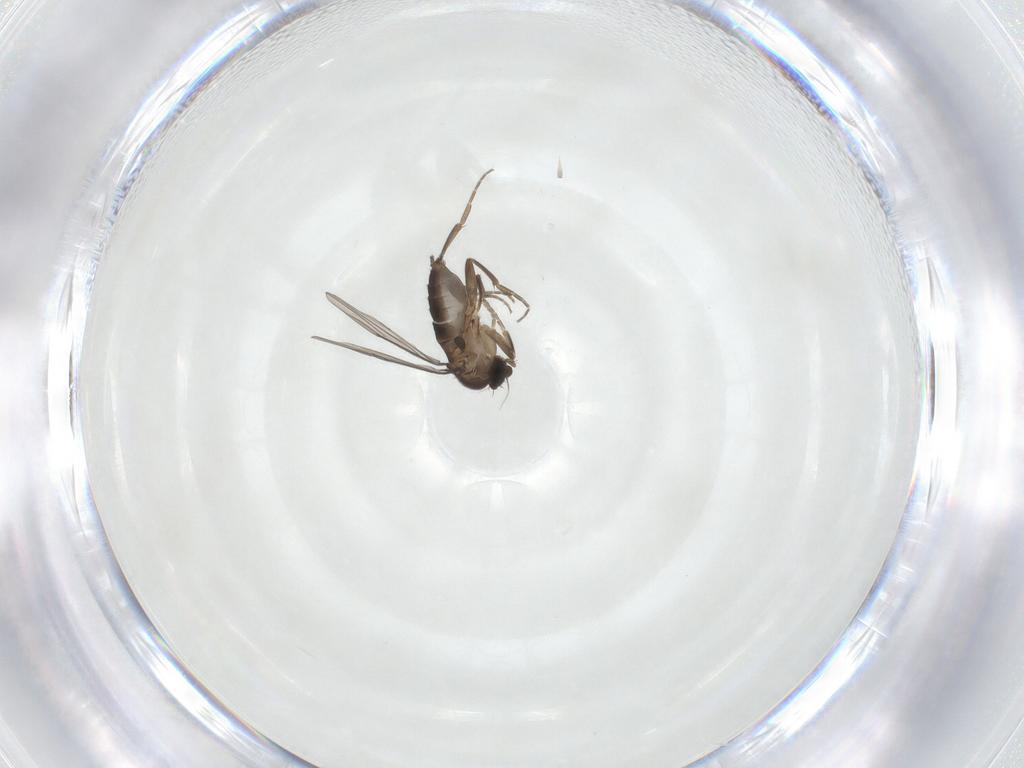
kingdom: Animalia
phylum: Arthropoda
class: Insecta
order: Diptera
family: Phoridae
